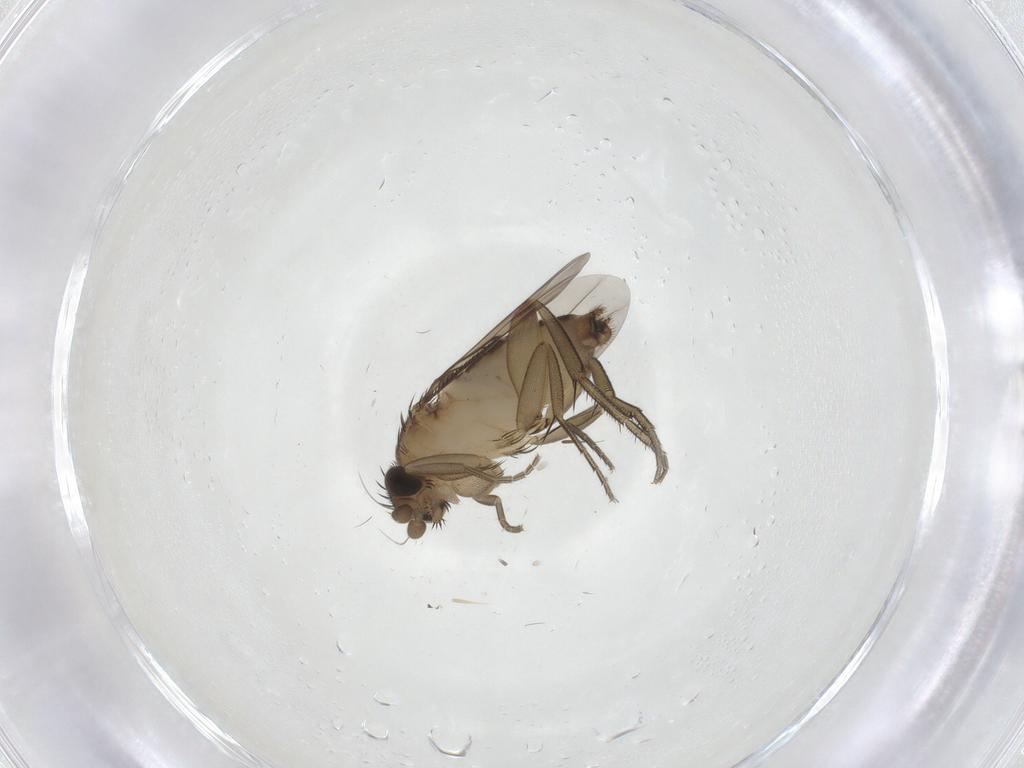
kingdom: Animalia
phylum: Arthropoda
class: Insecta
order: Diptera
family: Phoridae
